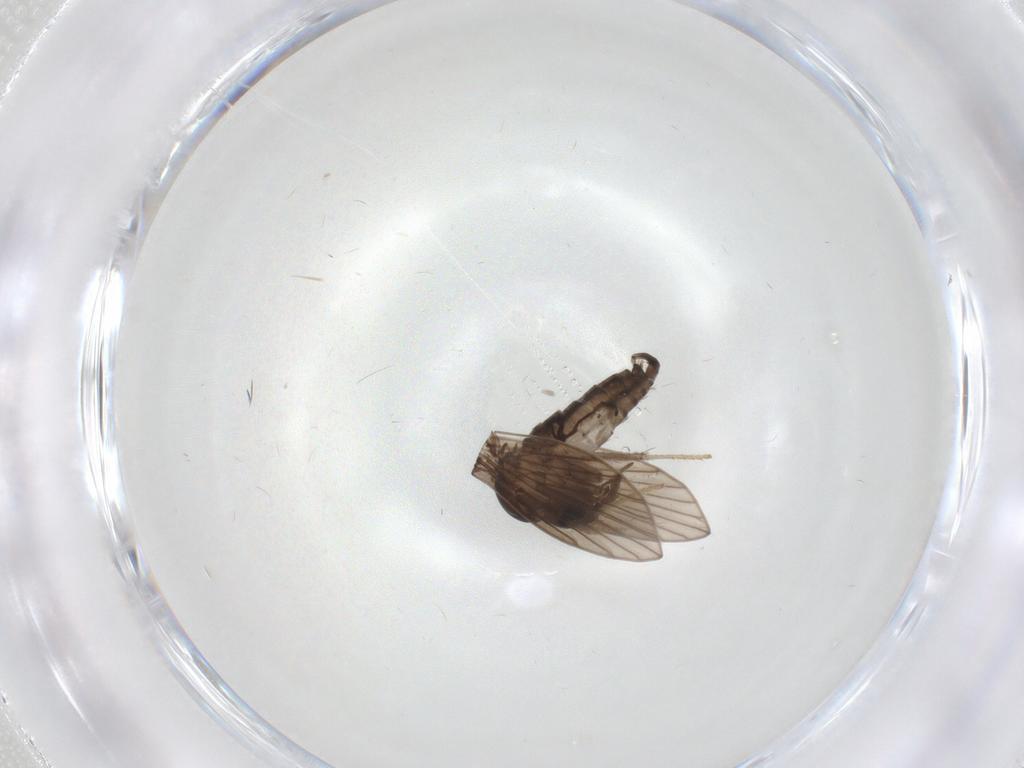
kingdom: Animalia
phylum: Arthropoda
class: Insecta
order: Diptera
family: Psychodidae
